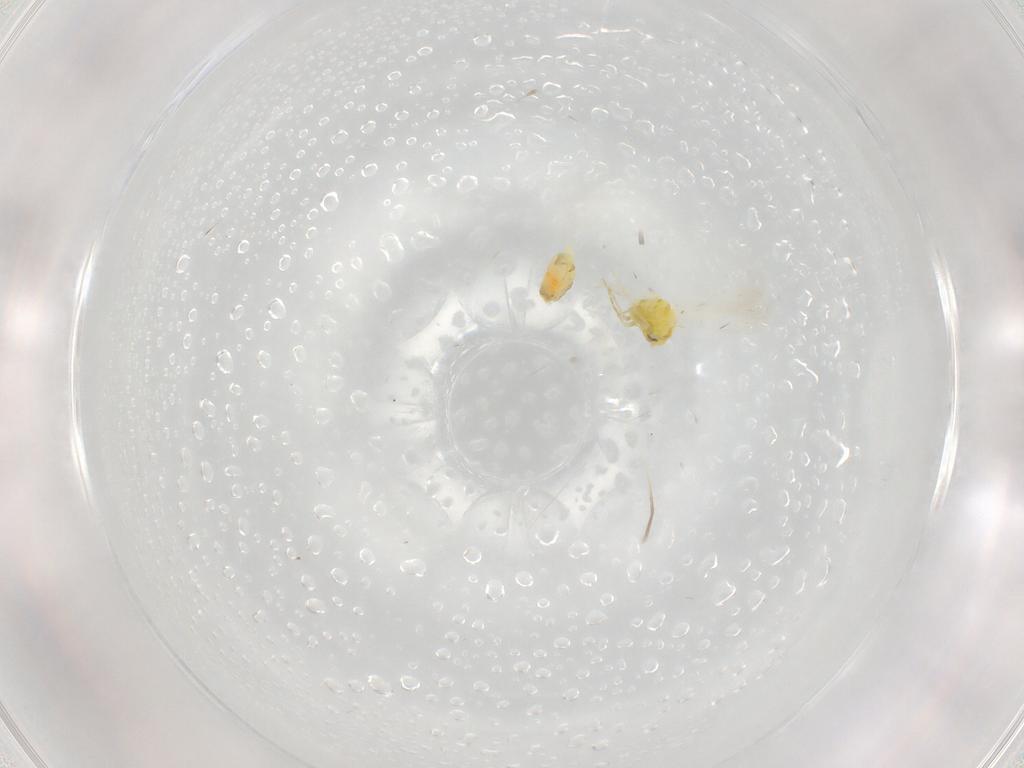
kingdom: Animalia
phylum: Arthropoda
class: Insecta
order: Hemiptera
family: Aleyrodidae
